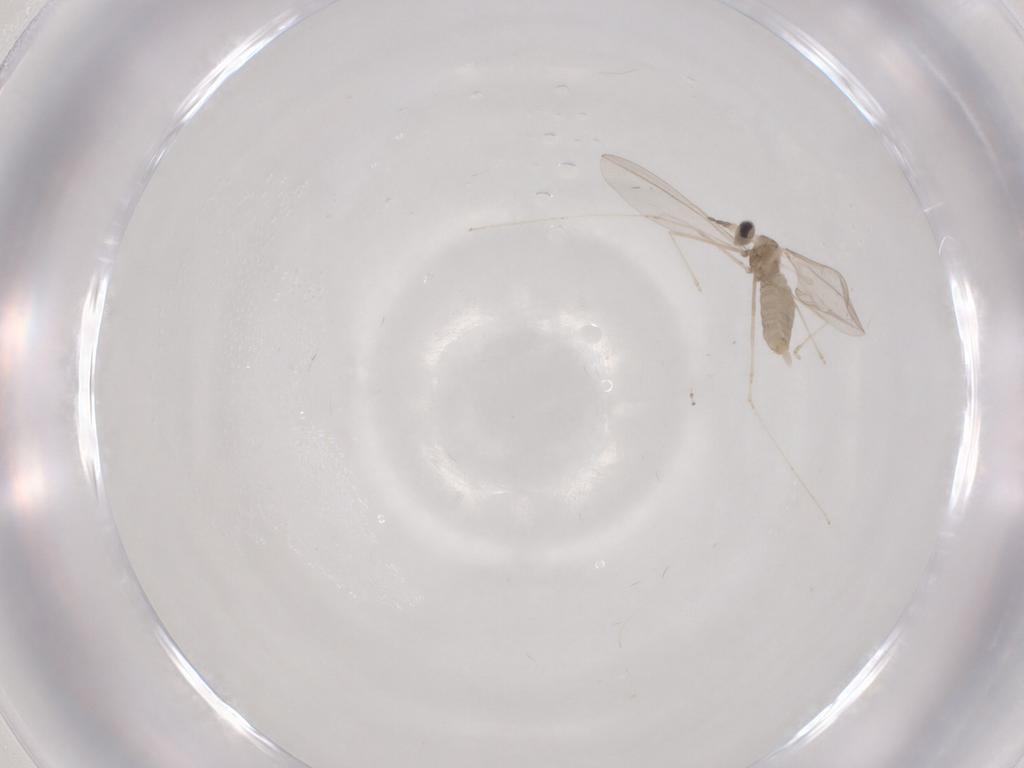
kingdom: Animalia
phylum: Arthropoda
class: Insecta
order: Diptera
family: Cecidomyiidae
